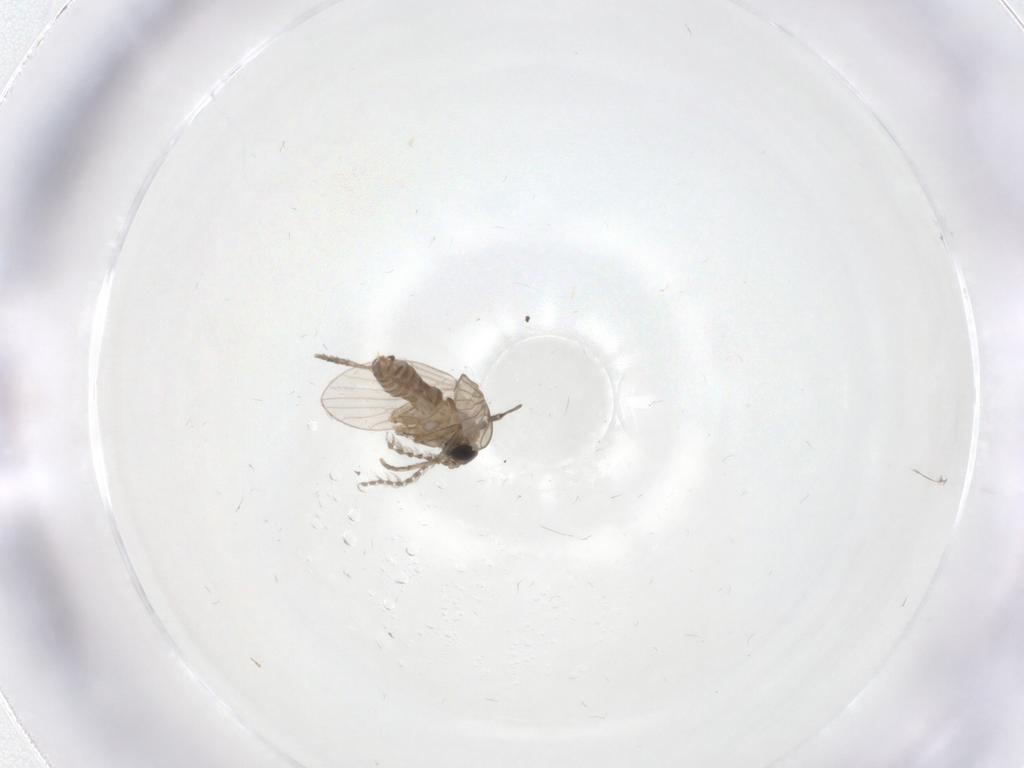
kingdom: Animalia
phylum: Arthropoda
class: Insecta
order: Diptera
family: Psychodidae
